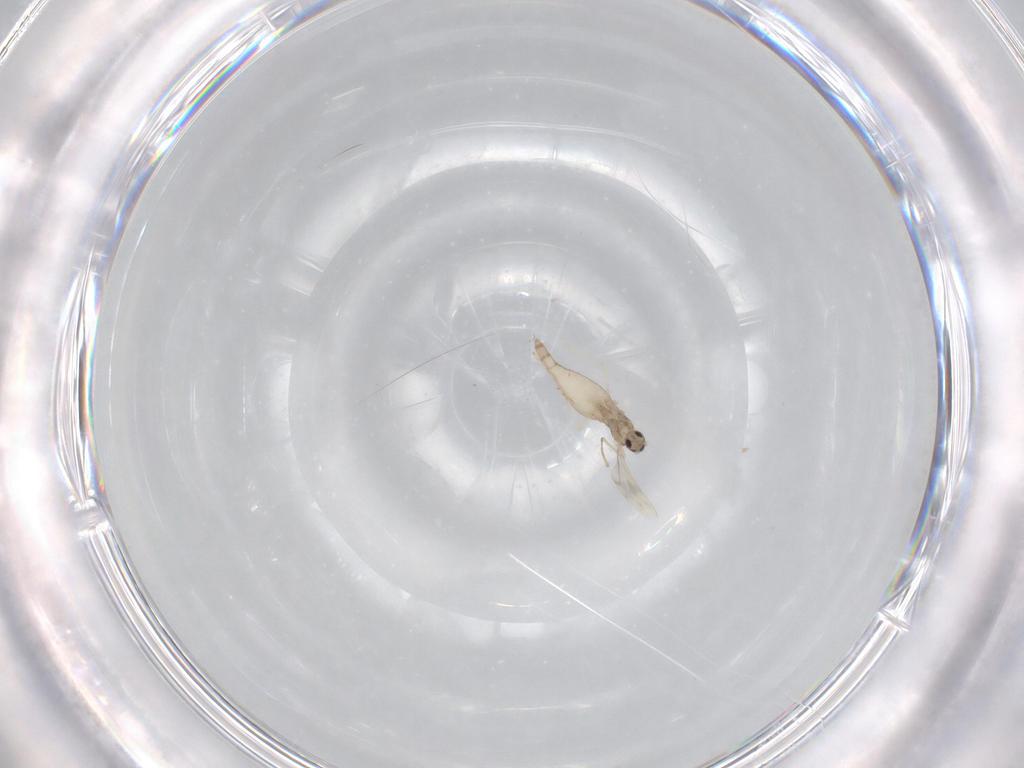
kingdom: Animalia
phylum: Arthropoda
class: Insecta
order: Diptera
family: Cecidomyiidae
